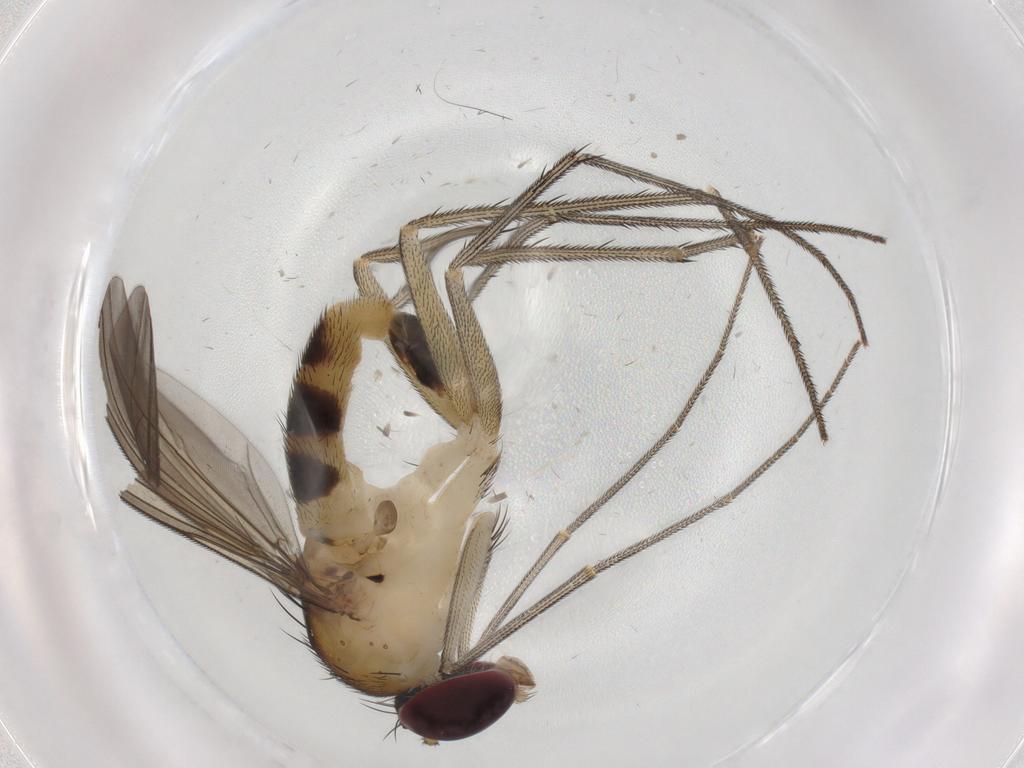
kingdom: Animalia
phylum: Arthropoda
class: Insecta
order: Diptera
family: Dolichopodidae
